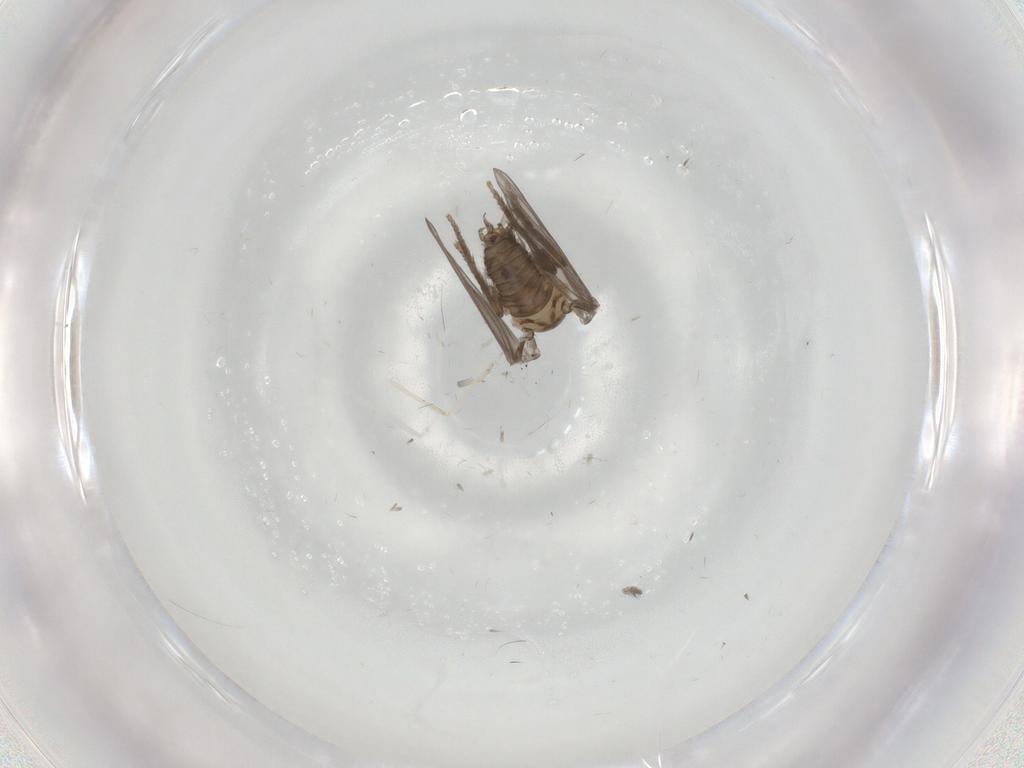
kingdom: Animalia
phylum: Arthropoda
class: Insecta
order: Diptera
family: Psychodidae
